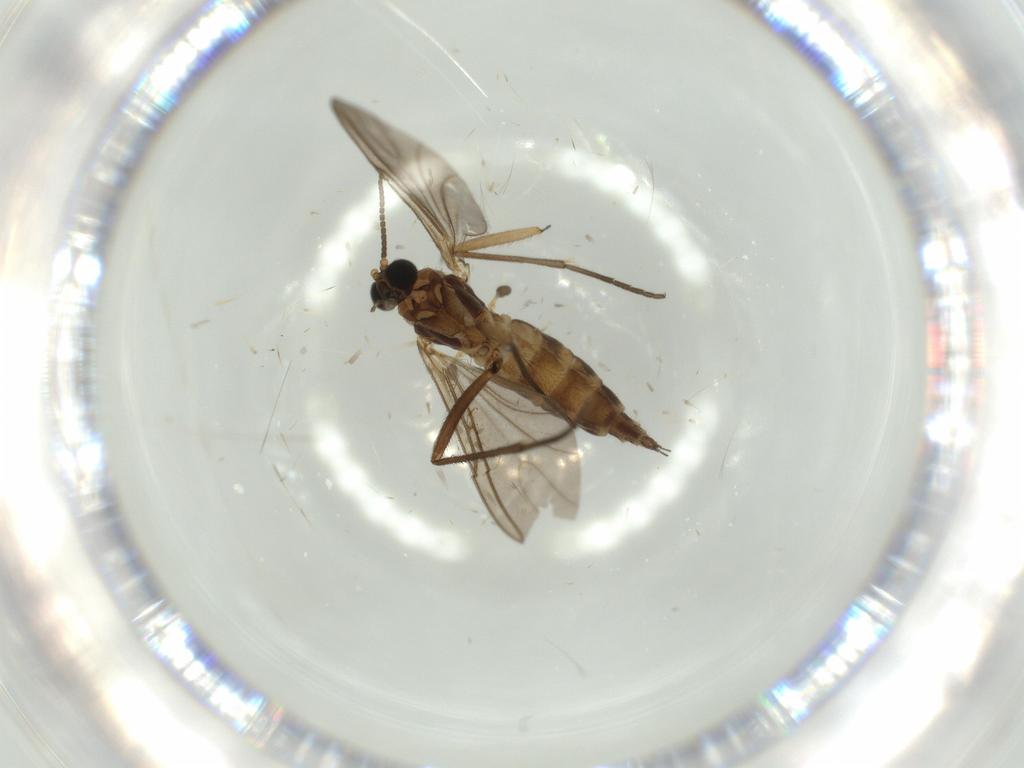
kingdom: Animalia
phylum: Arthropoda
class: Insecta
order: Diptera
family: Sciaridae
